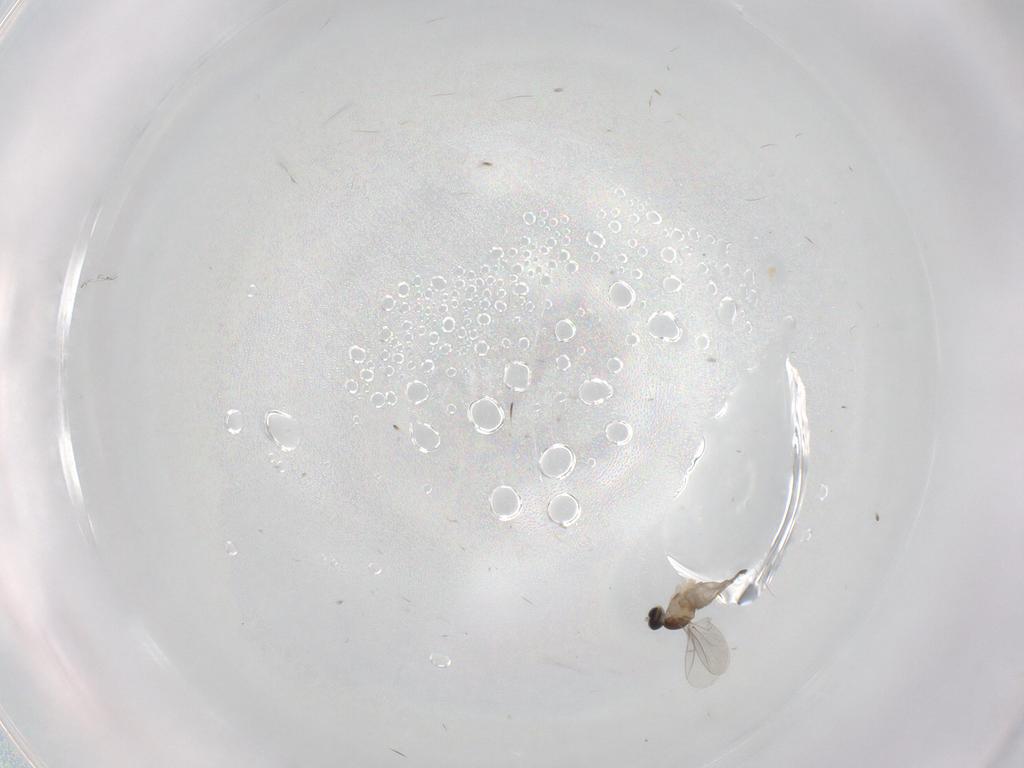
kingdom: Animalia
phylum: Arthropoda
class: Insecta
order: Diptera
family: Cecidomyiidae
